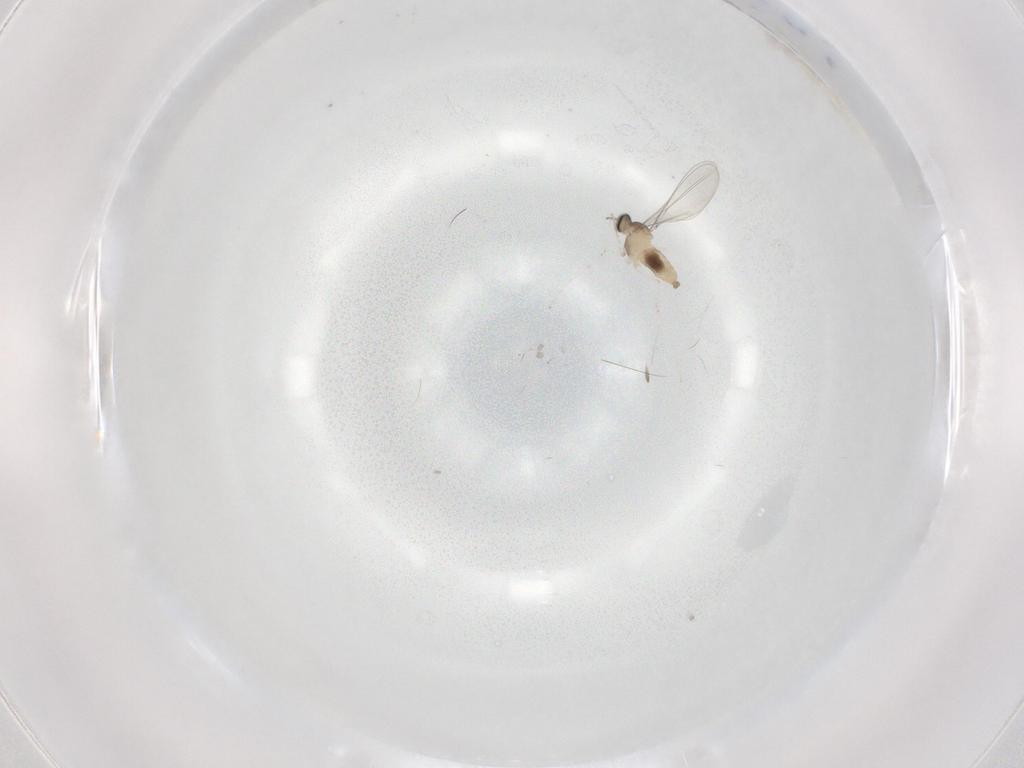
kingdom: Animalia
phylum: Arthropoda
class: Insecta
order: Diptera
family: Cecidomyiidae
